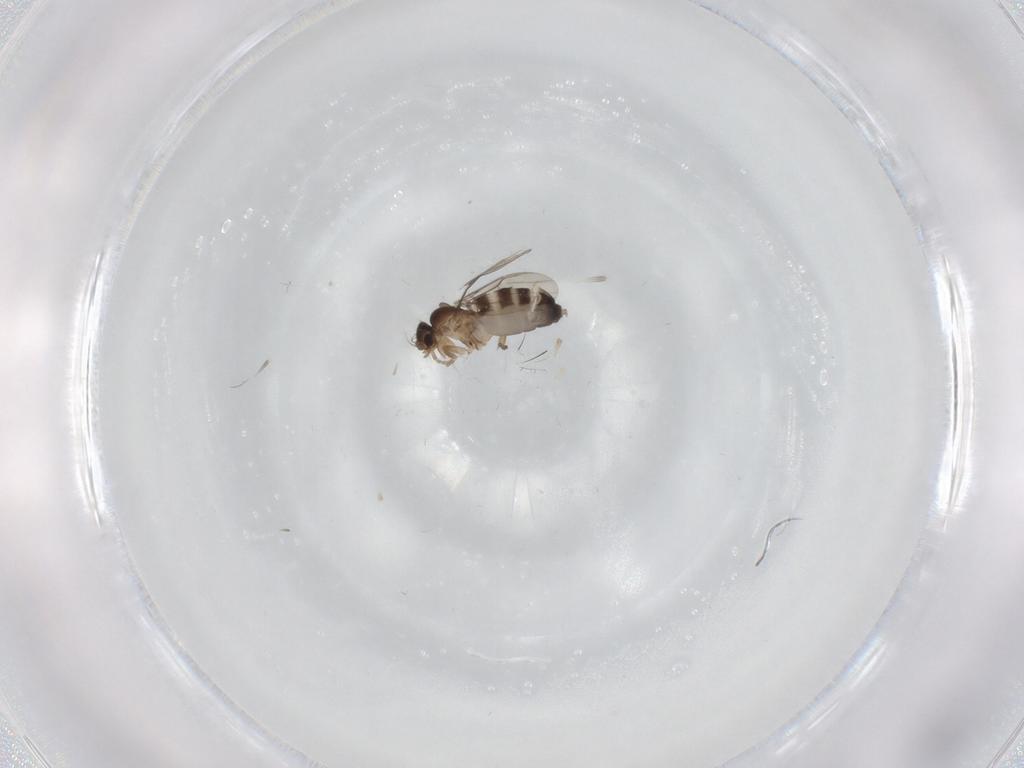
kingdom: Animalia
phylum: Arthropoda
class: Insecta
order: Diptera
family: Phoridae
